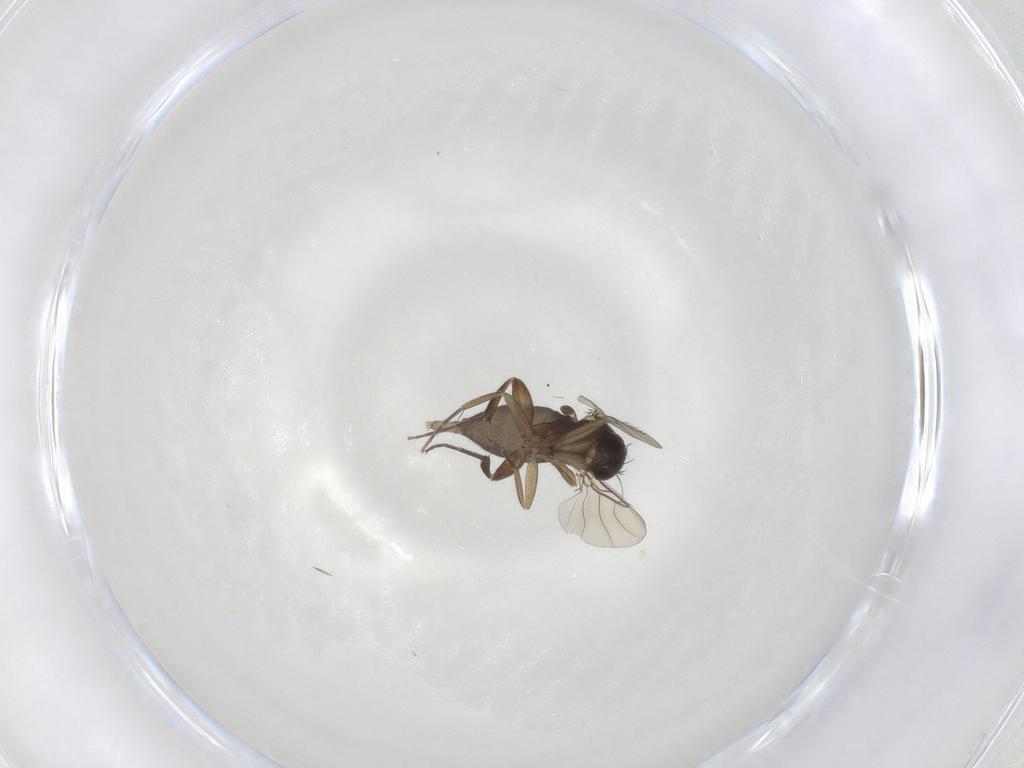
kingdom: Animalia
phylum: Arthropoda
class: Insecta
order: Diptera
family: Phoridae
